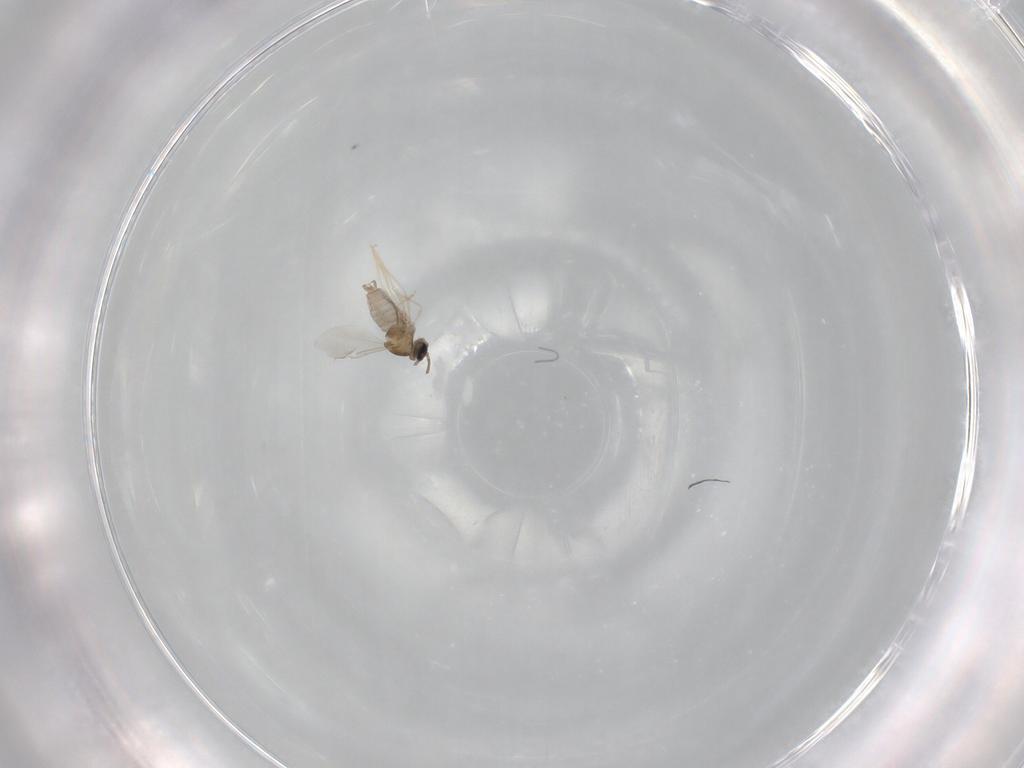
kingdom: Animalia
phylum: Arthropoda
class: Insecta
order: Diptera
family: Cecidomyiidae
